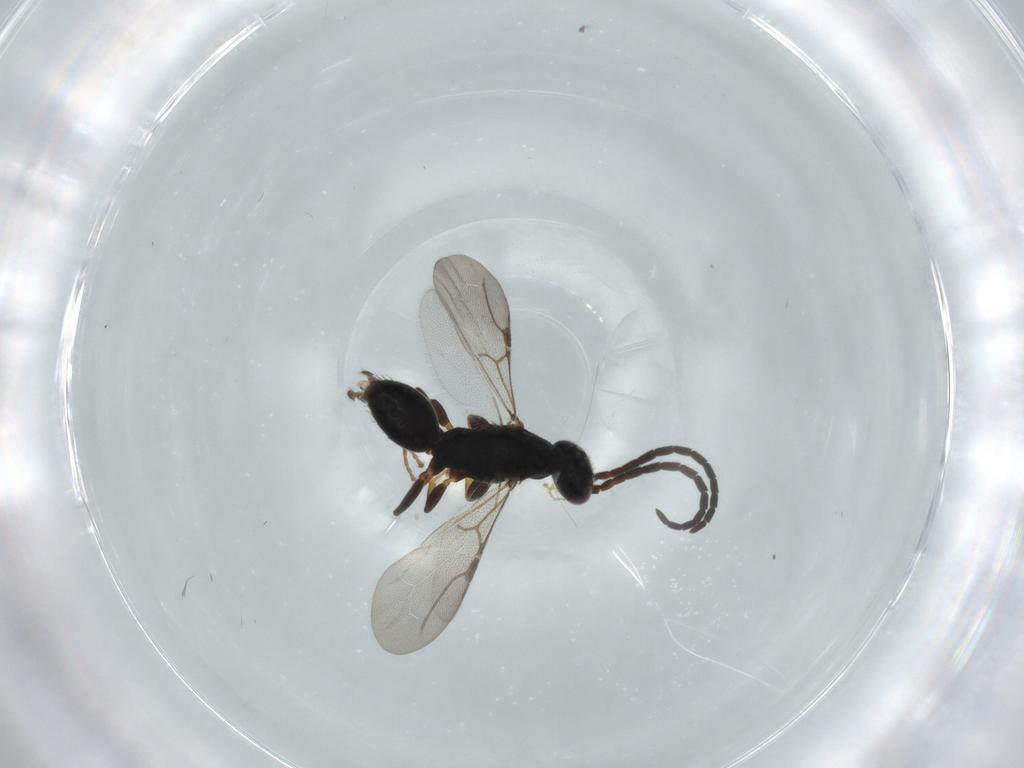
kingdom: Animalia
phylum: Arthropoda
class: Insecta
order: Hymenoptera
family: Bethylidae
